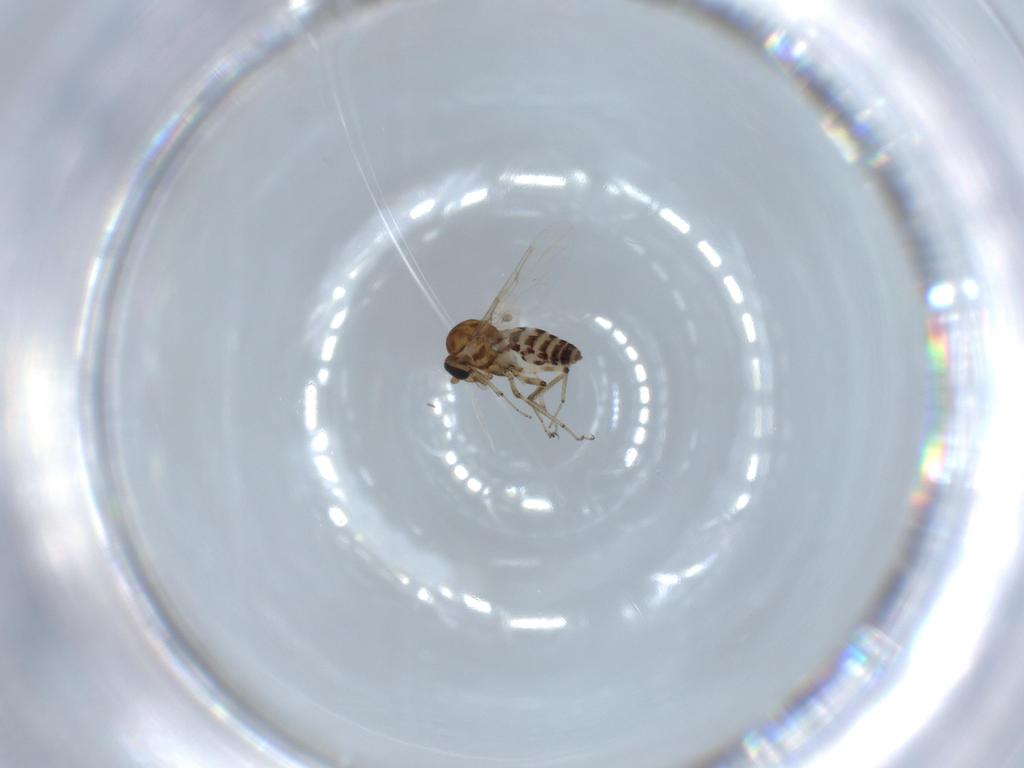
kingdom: Animalia
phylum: Arthropoda
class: Insecta
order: Diptera
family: Ceratopogonidae
